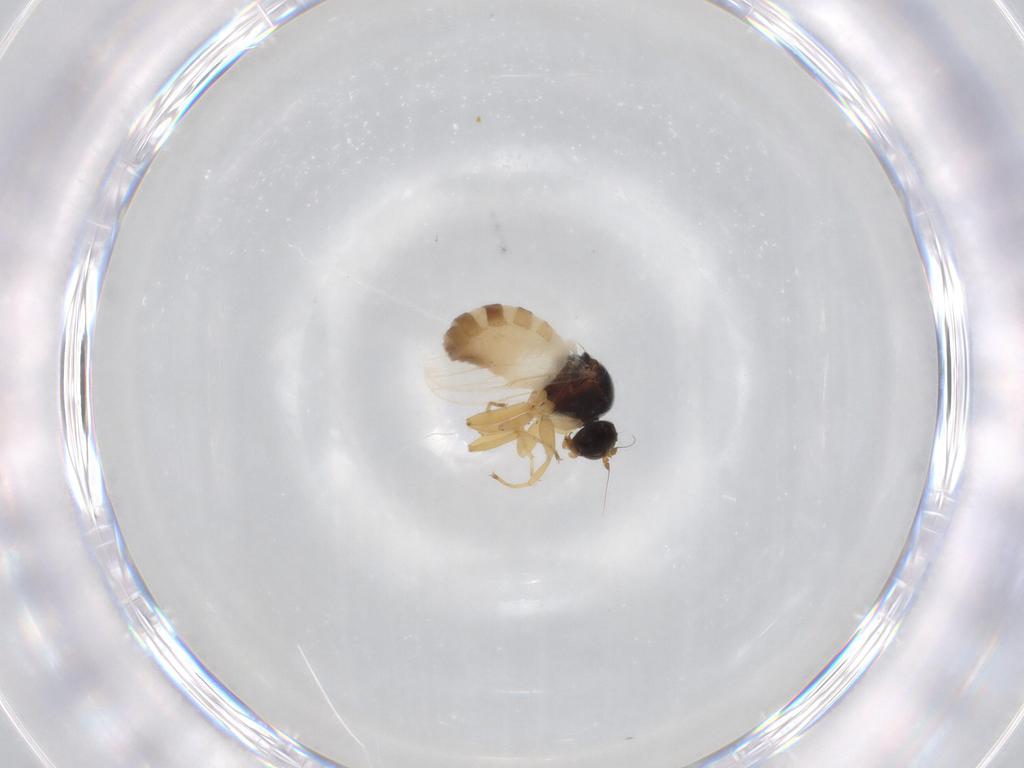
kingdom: Animalia
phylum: Arthropoda
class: Insecta
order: Diptera
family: Hybotidae
